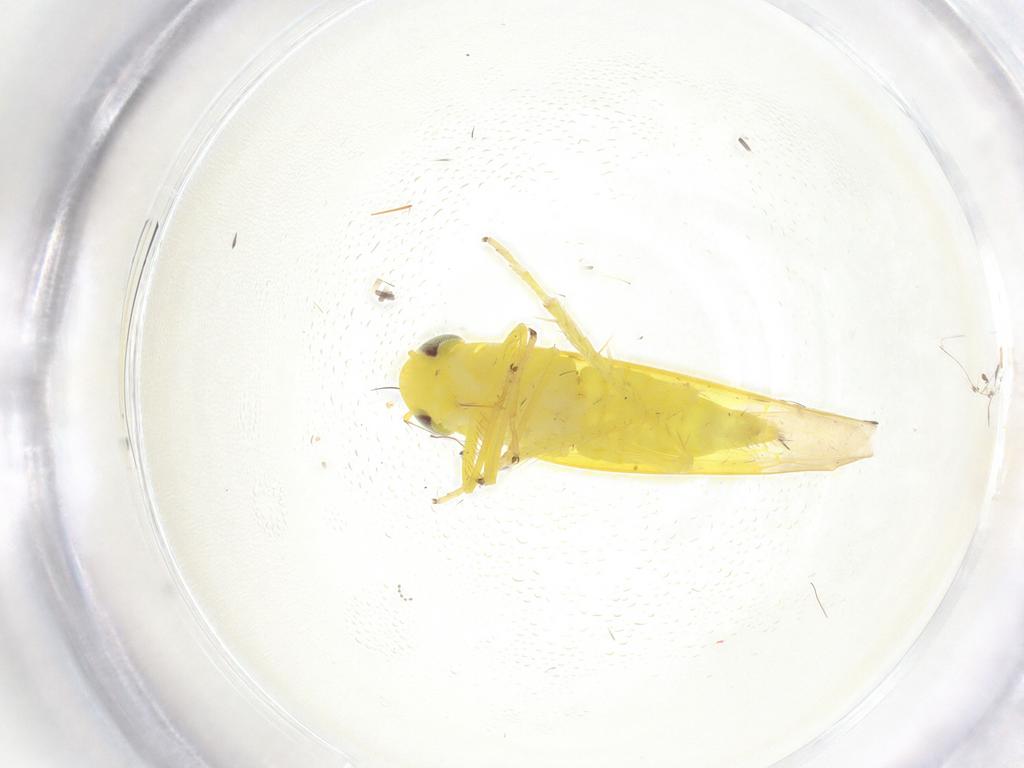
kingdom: Animalia
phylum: Arthropoda
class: Insecta
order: Hemiptera
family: Cicadellidae
